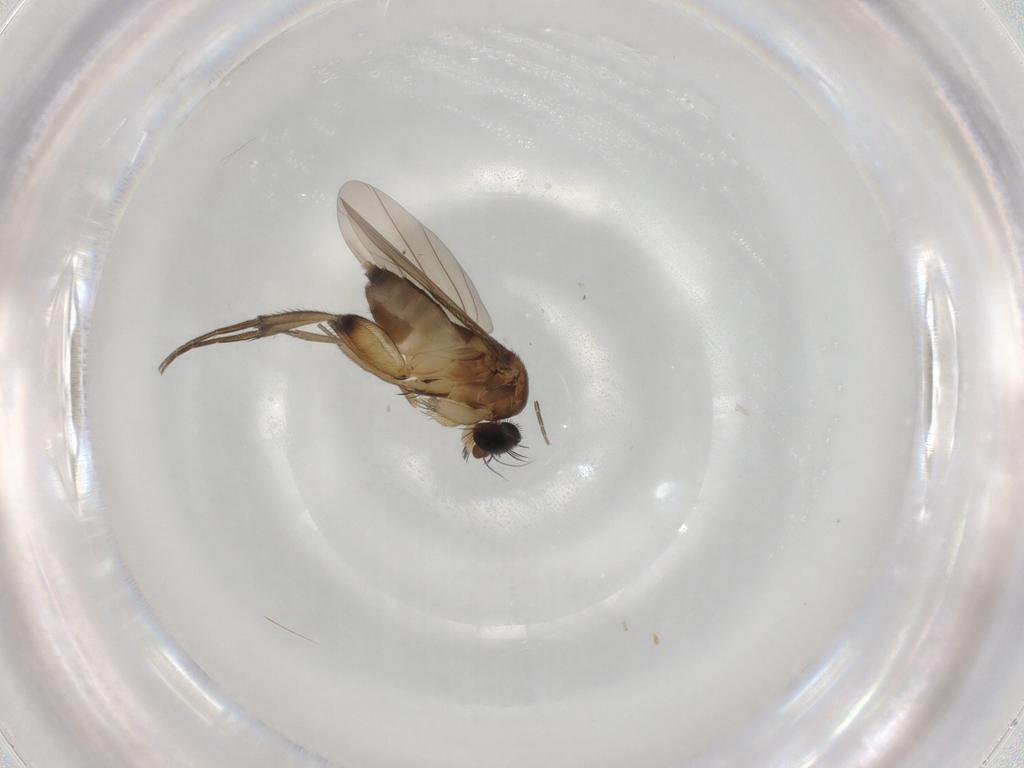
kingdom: Animalia
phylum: Arthropoda
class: Insecta
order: Diptera
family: Phoridae
